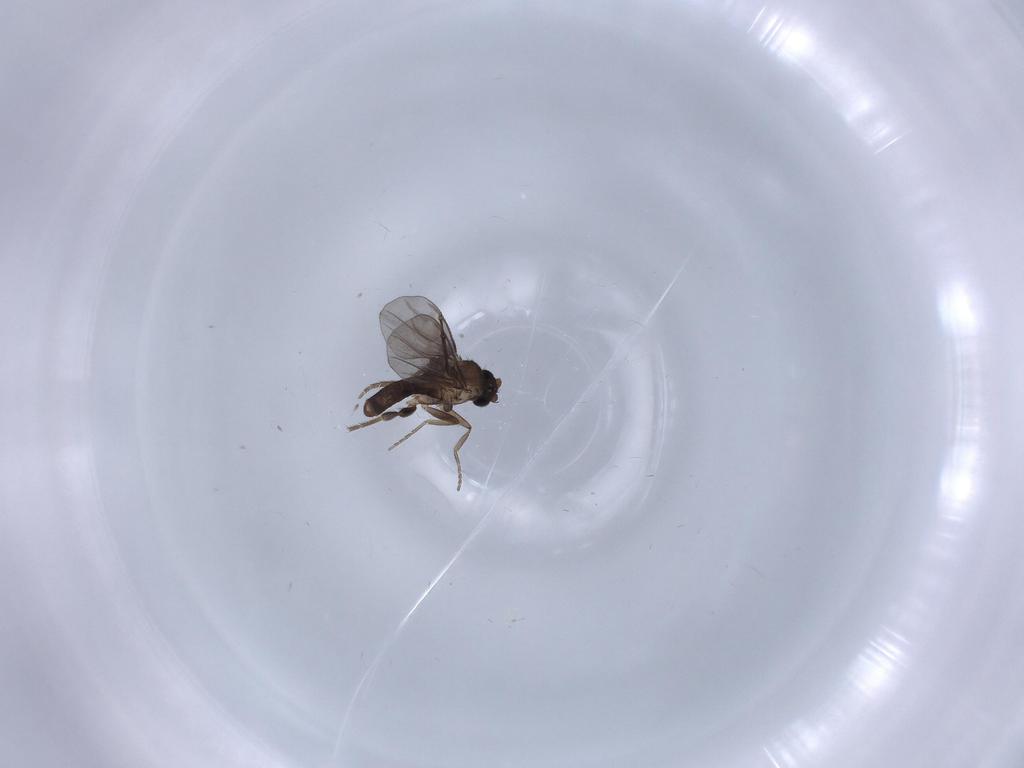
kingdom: Animalia
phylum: Arthropoda
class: Insecta
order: Diptera
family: Phoridae
